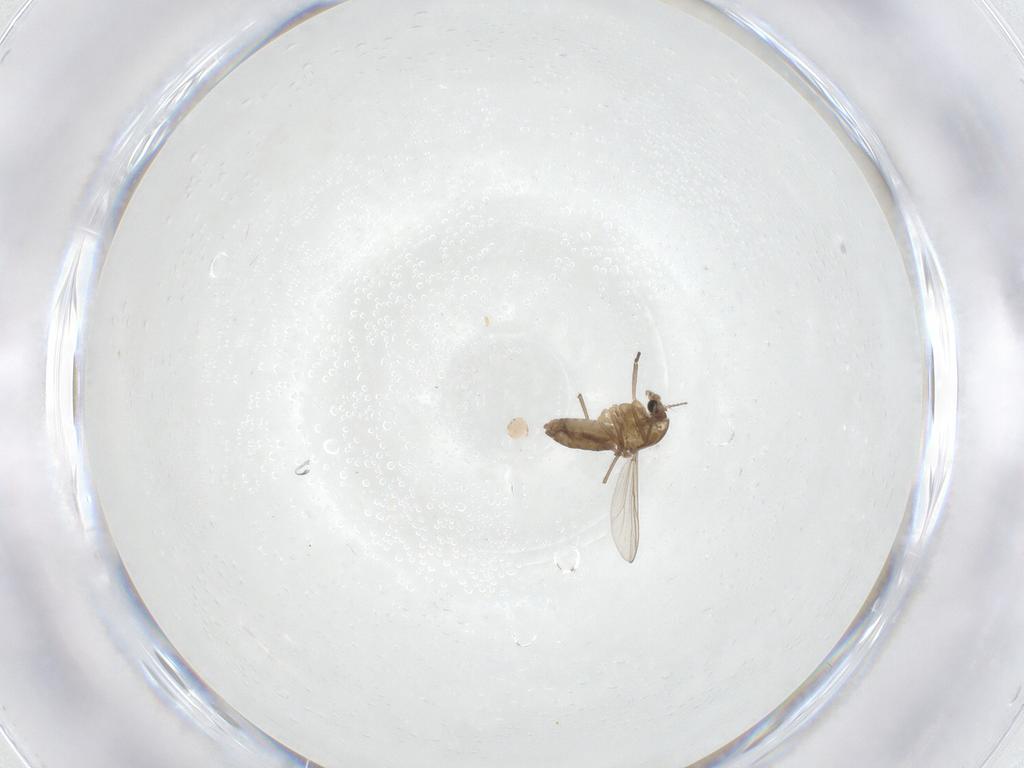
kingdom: Animalia
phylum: Arthropoda
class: Insecta
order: Diptera
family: Chironomidae
